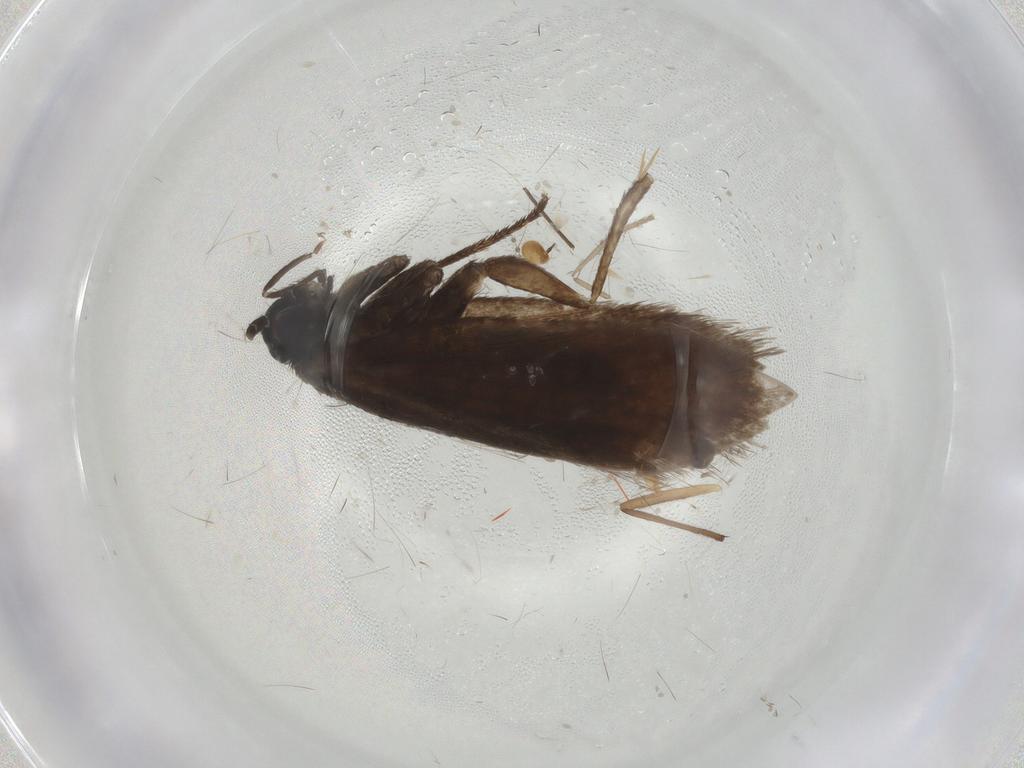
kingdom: Animalia
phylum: Arthropoda
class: Insecta
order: Lepidoptera
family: Micropterigidae
